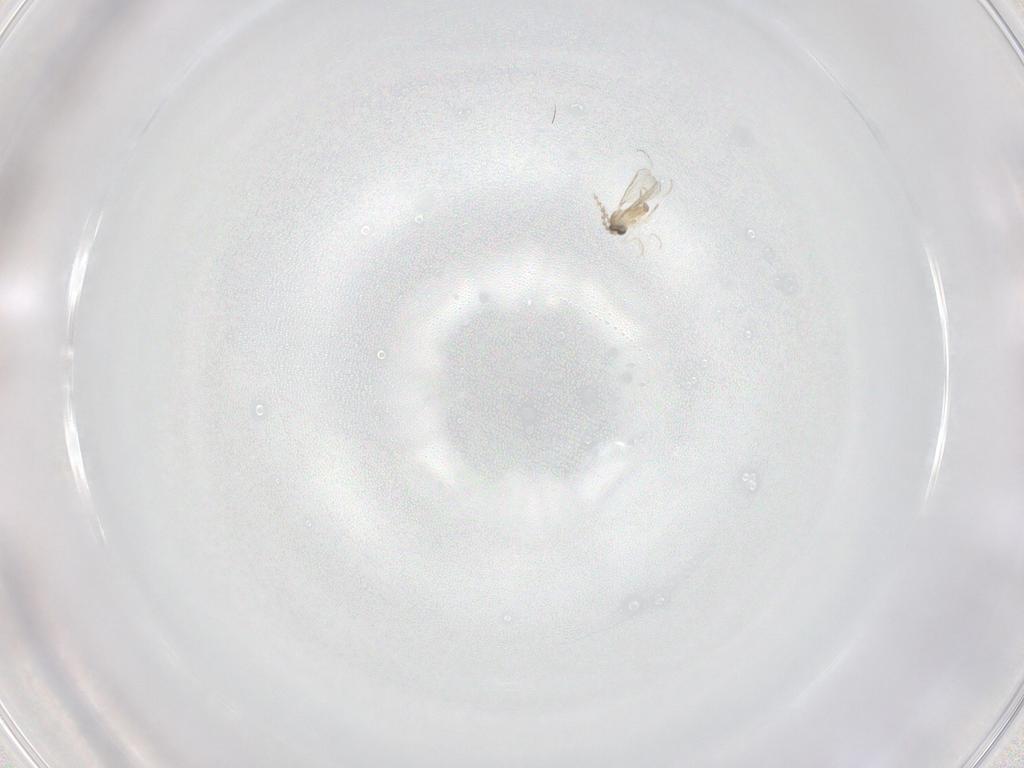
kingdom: Animalia
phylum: Arthropoda
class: Insecta
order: Diptera
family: Cecidomyiidae
